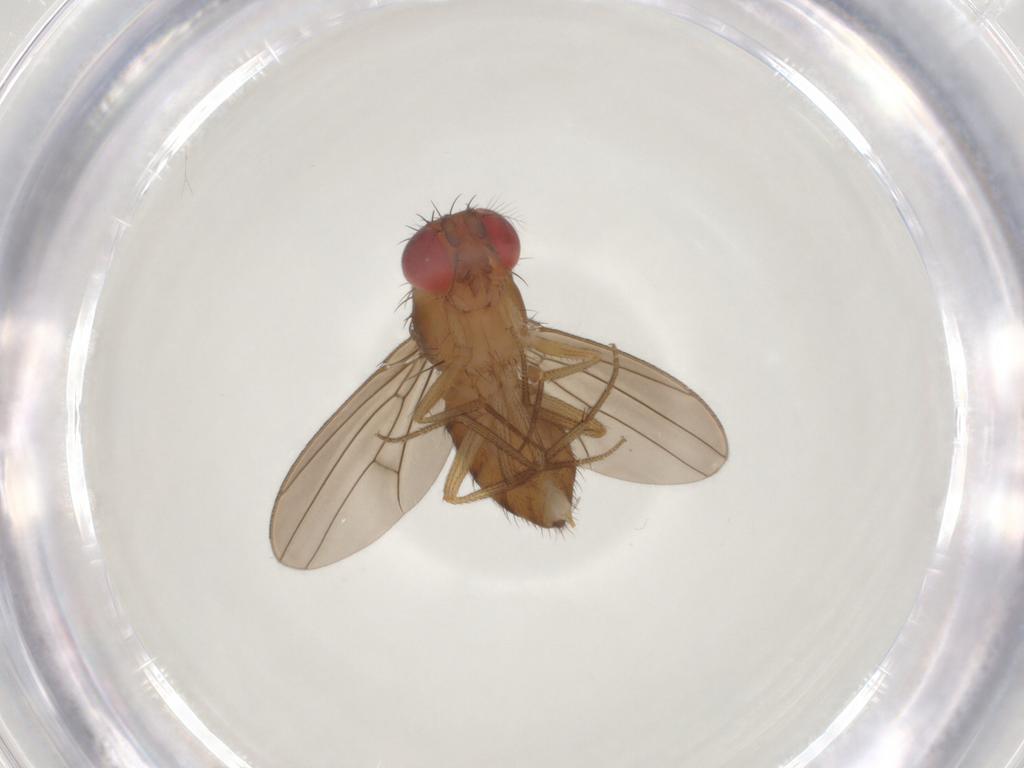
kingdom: Animalia
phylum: Arthropoda
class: Insecta
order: Diptera
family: Drosophilidae
